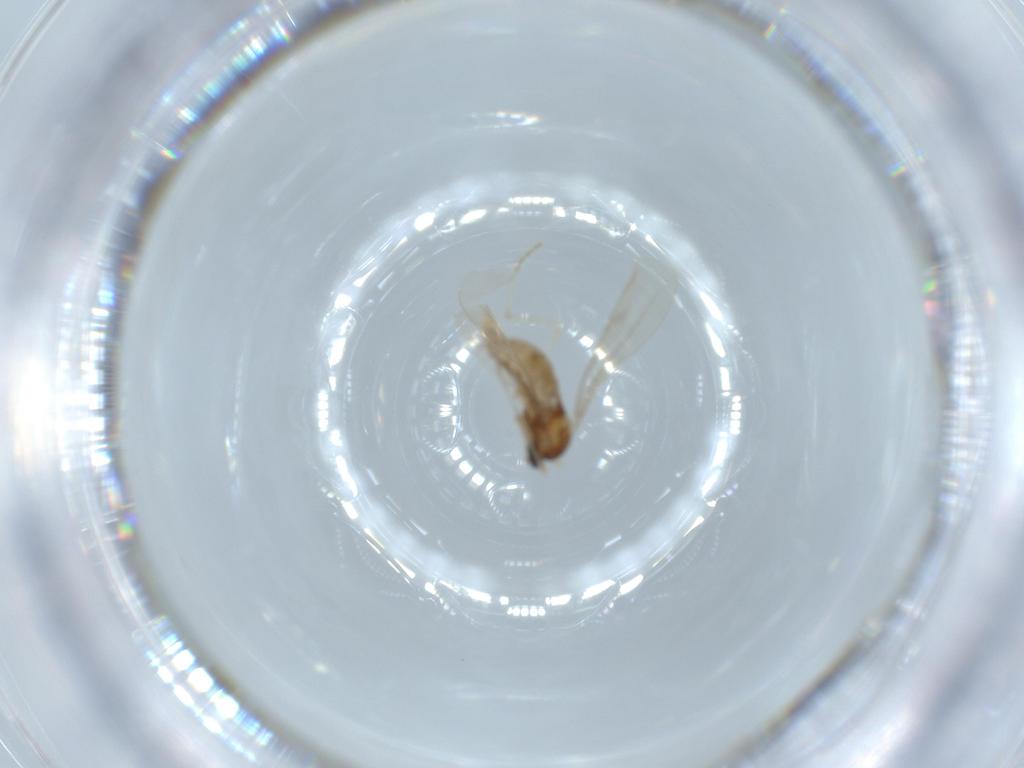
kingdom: Animalia
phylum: Arthropoda
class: Insecta
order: Diptera
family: Cecidomyiidae
